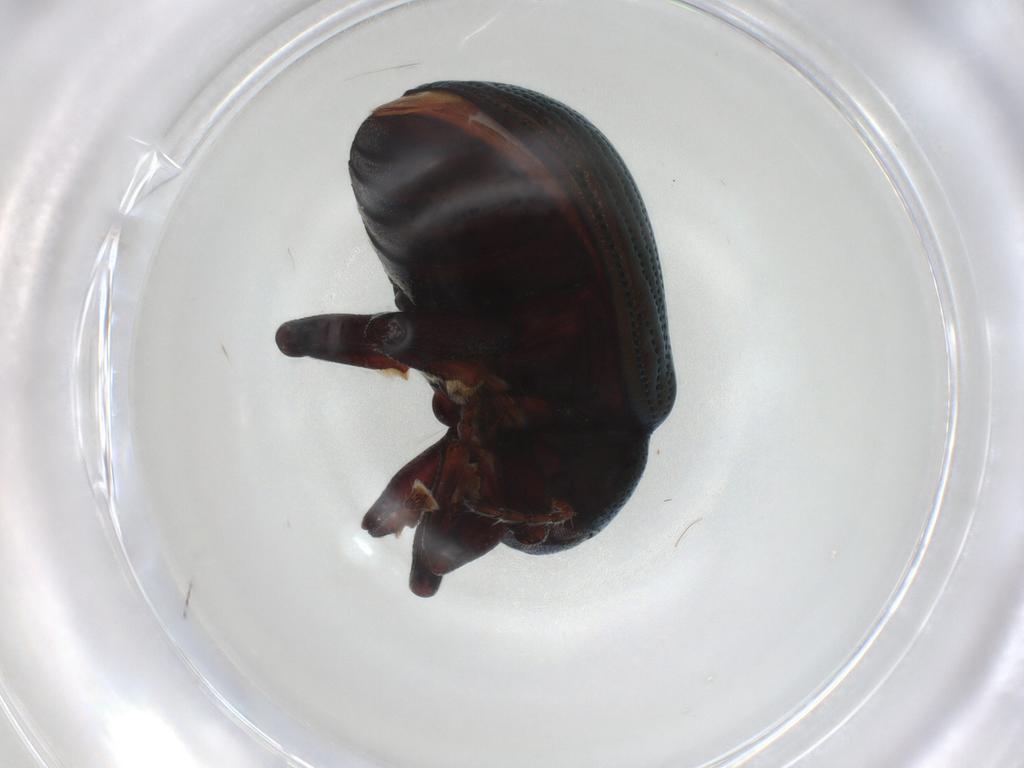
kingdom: Animalia
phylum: Arthropoda
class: Insecta
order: Coleoptera
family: Chrysomelidae
